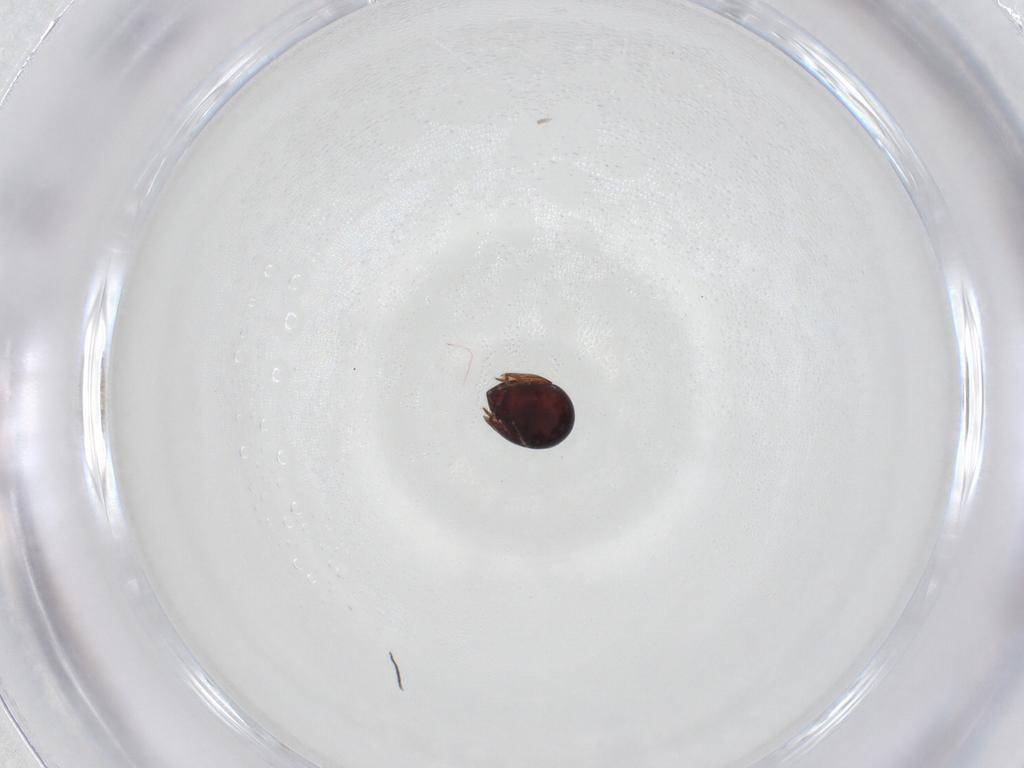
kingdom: Animalia
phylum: Arthropoda
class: Arachnida
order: Sarcoptiformes
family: Galumnidae
